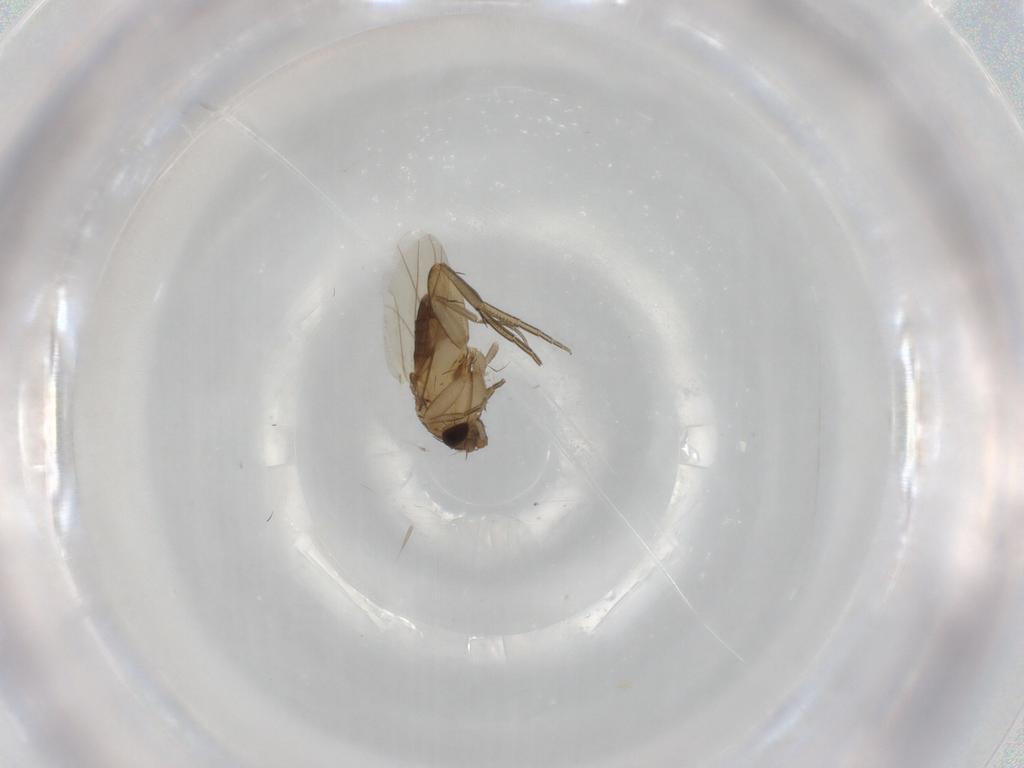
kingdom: Animalia
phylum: Arthropoda
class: Insecta
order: Diptera
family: Phoridae
